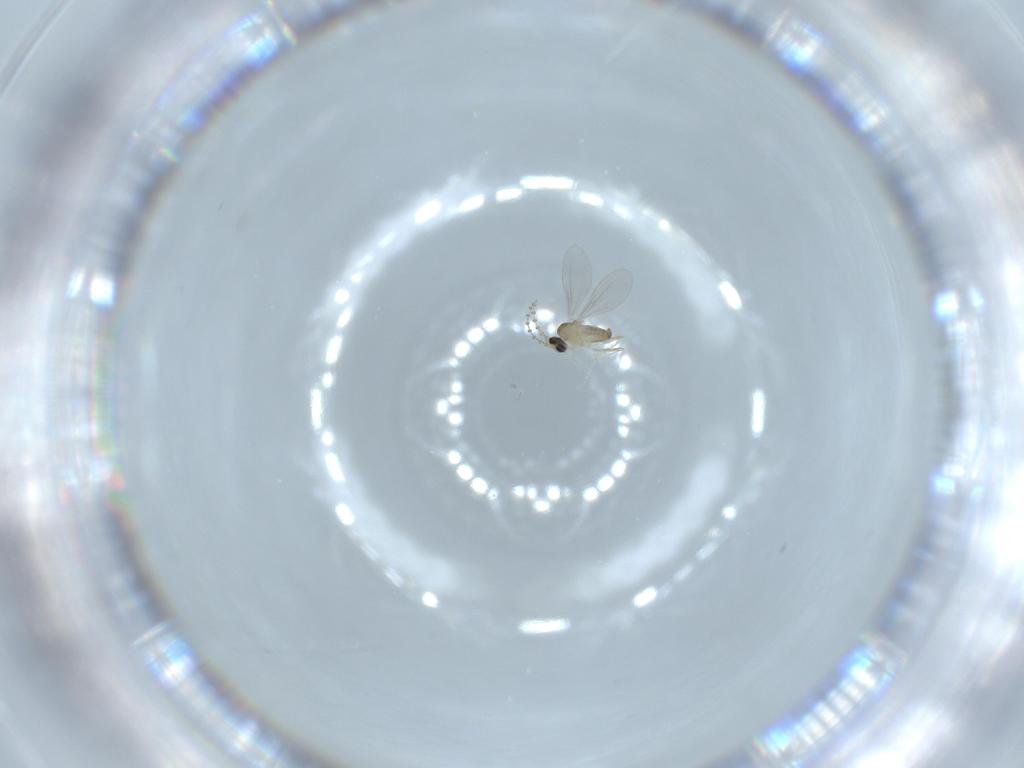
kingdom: Animalia
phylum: Arthropoda
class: Insecta
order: Diptera
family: Cecidomyiidae
